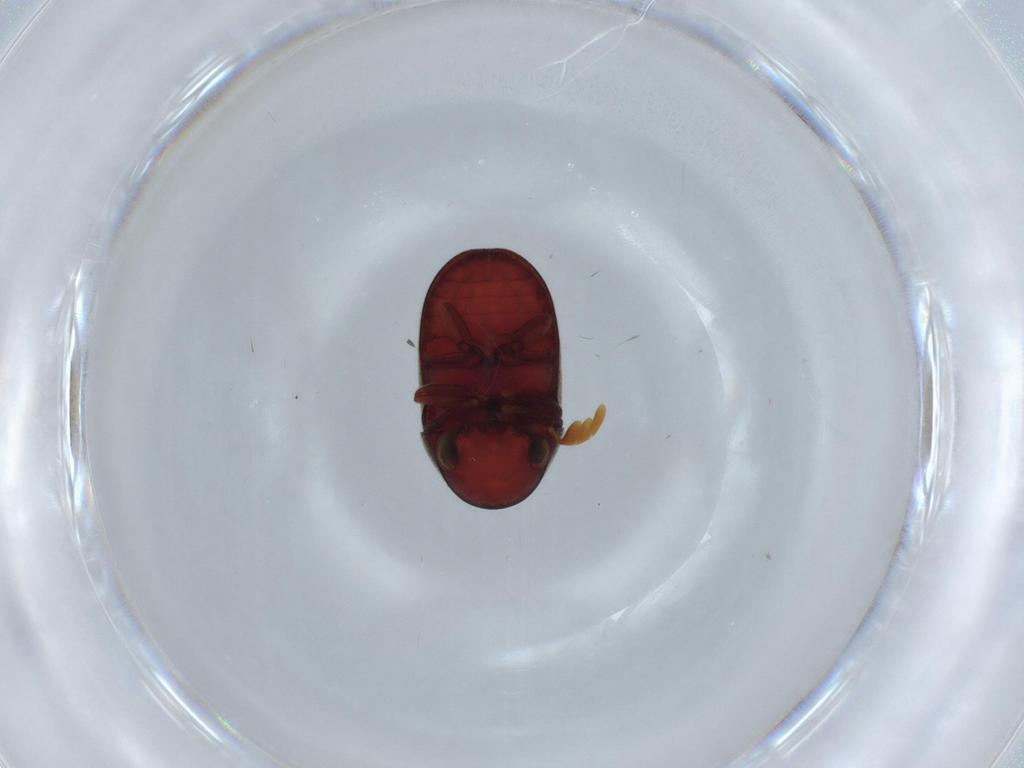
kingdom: Animalia
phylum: Arthropoda
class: Insecta
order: Coleoptera
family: Ptinidae
